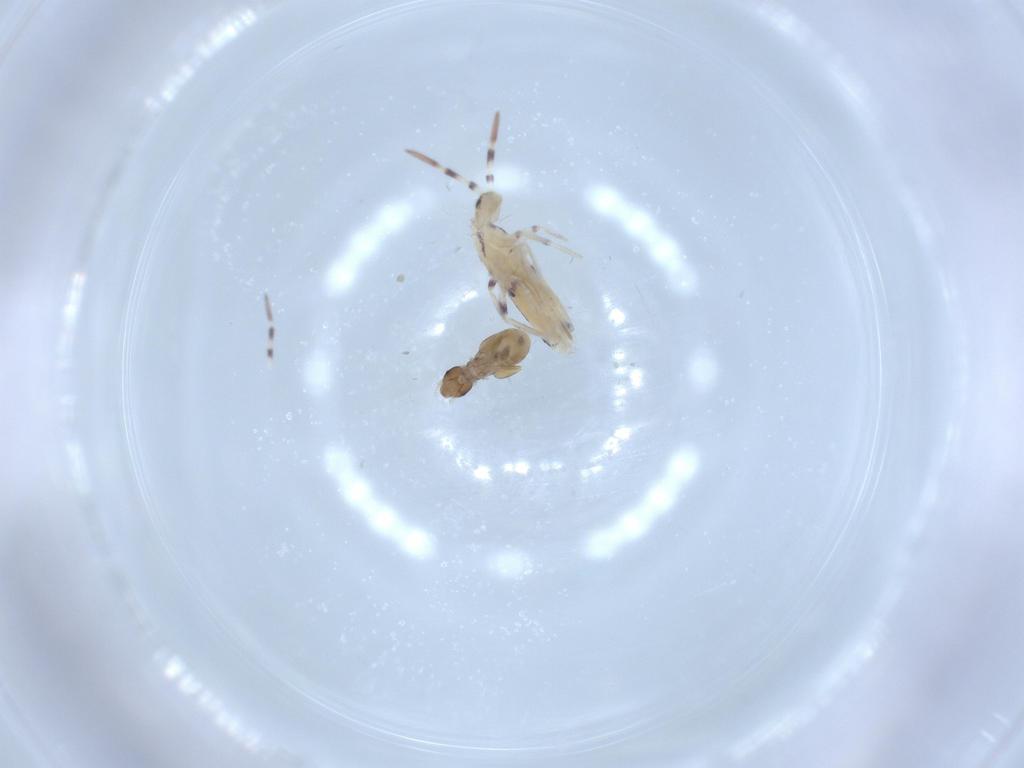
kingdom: Animalia
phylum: Arthropoda
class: Collembola
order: Entomobryomorpha
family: Entomobryidae
